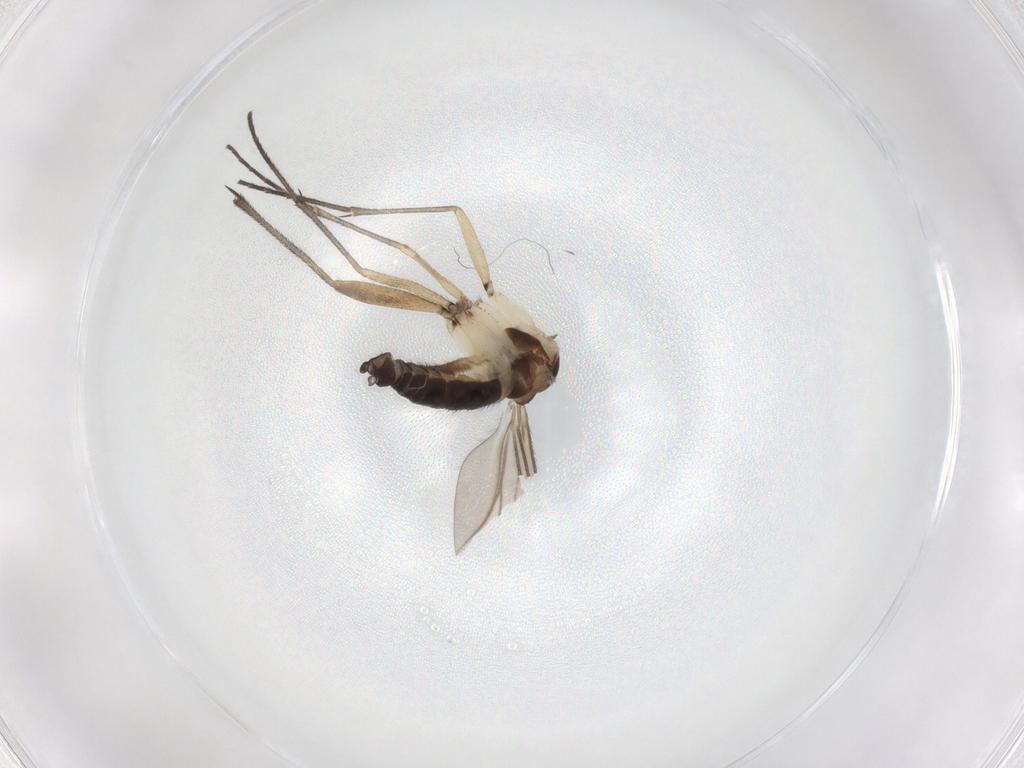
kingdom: Animalia
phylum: Arthropoda
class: Insecta
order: Diptera
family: Sciaridae
